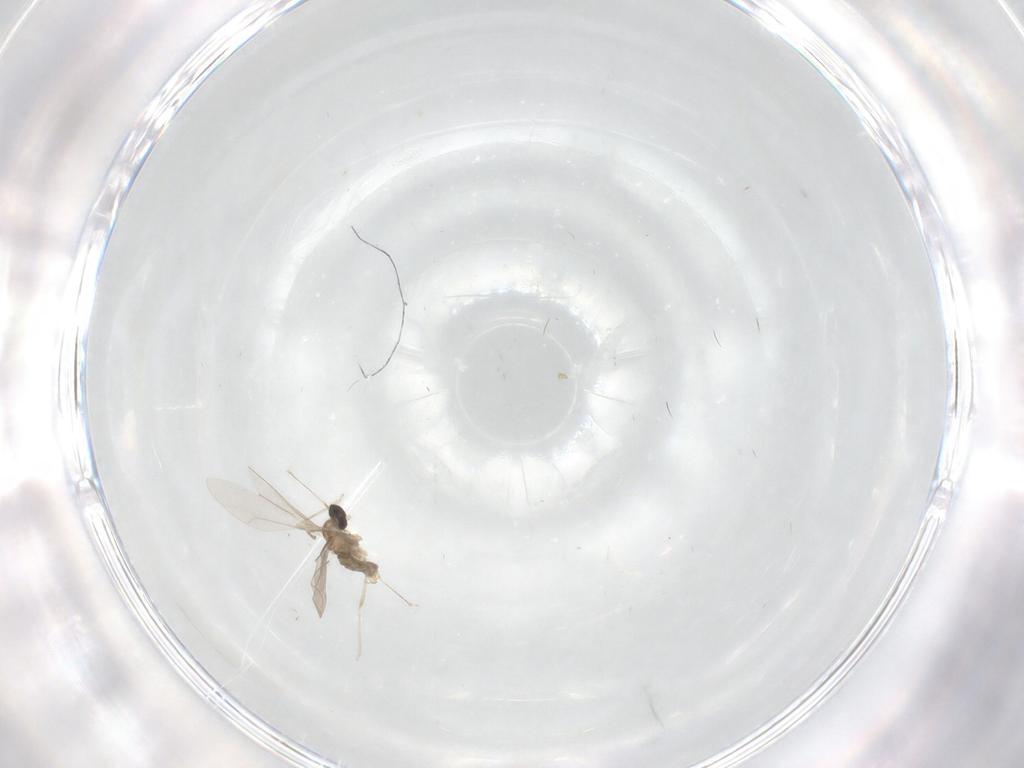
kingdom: Animalia
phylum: Arthropoda
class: Insecta
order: Diptera
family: Cecidomyiidae
